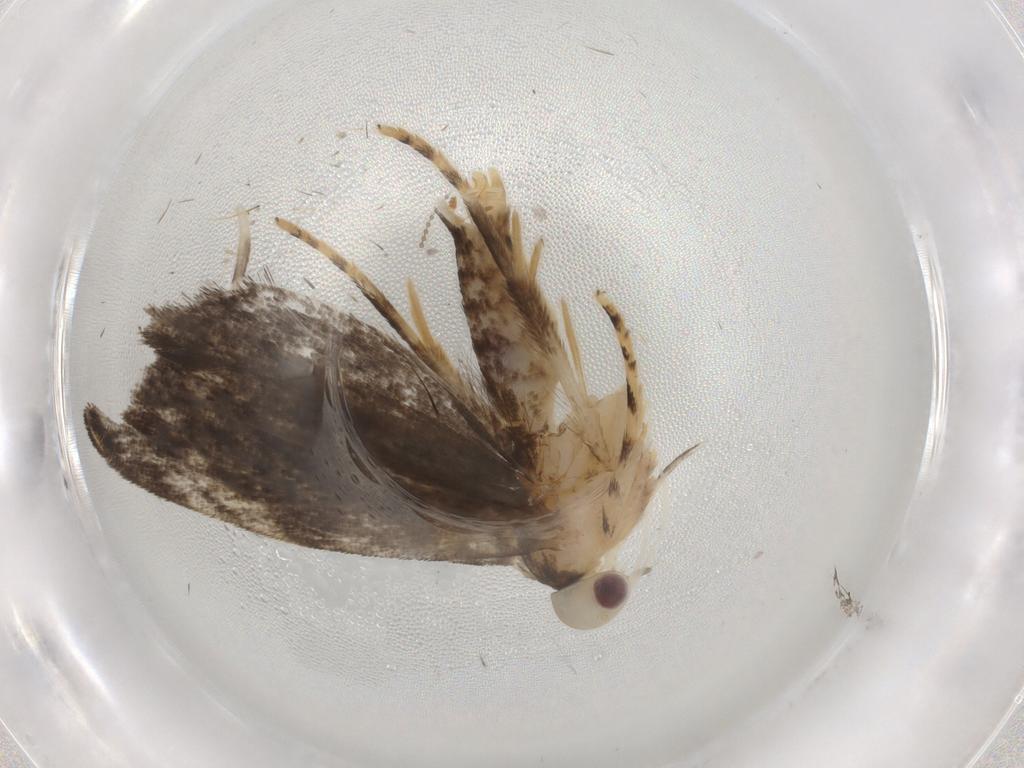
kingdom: Animalia
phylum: Arthropoda
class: Insecta
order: Lepidoptera
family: Gelechiidae
